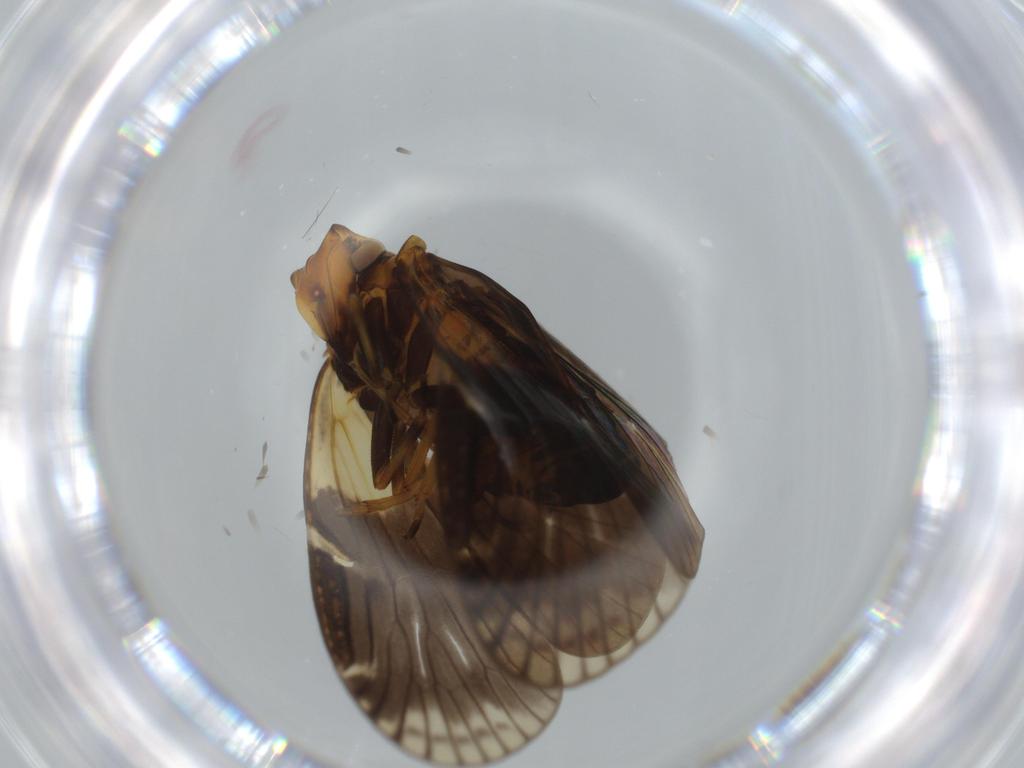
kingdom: Animalia
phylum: Arthropoda
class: Insecta
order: Hemiptera
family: Cixiidae
